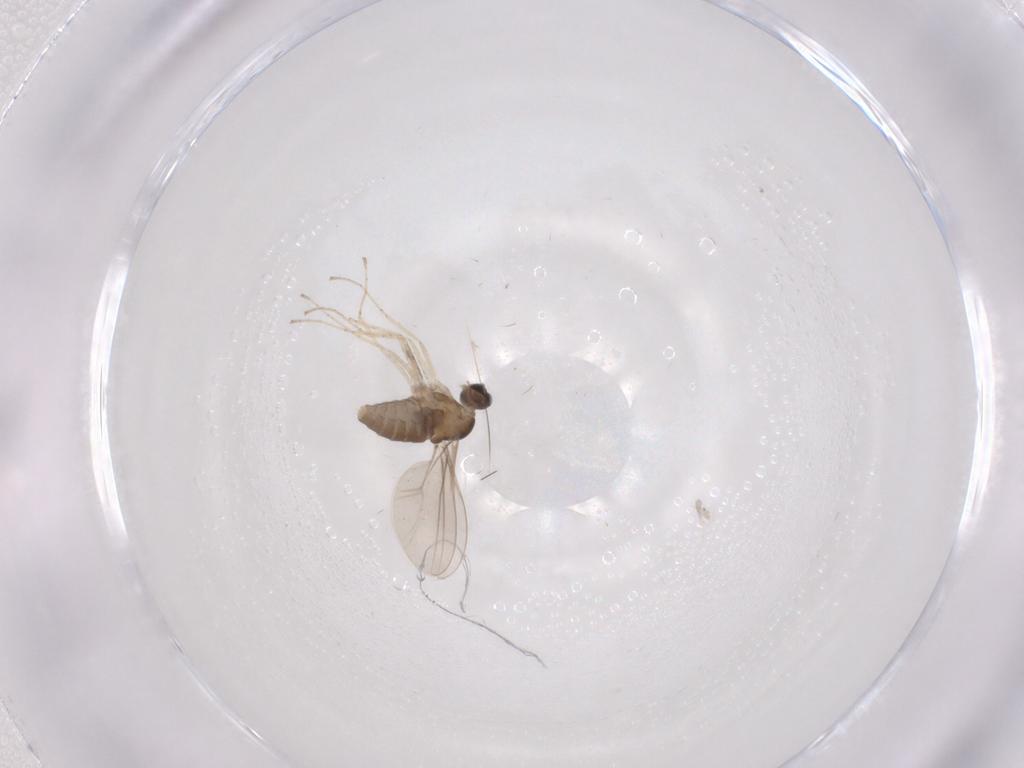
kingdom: Animalia
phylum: Arthropoda
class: Insecta
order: Diptera
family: Cecidomyiidae
